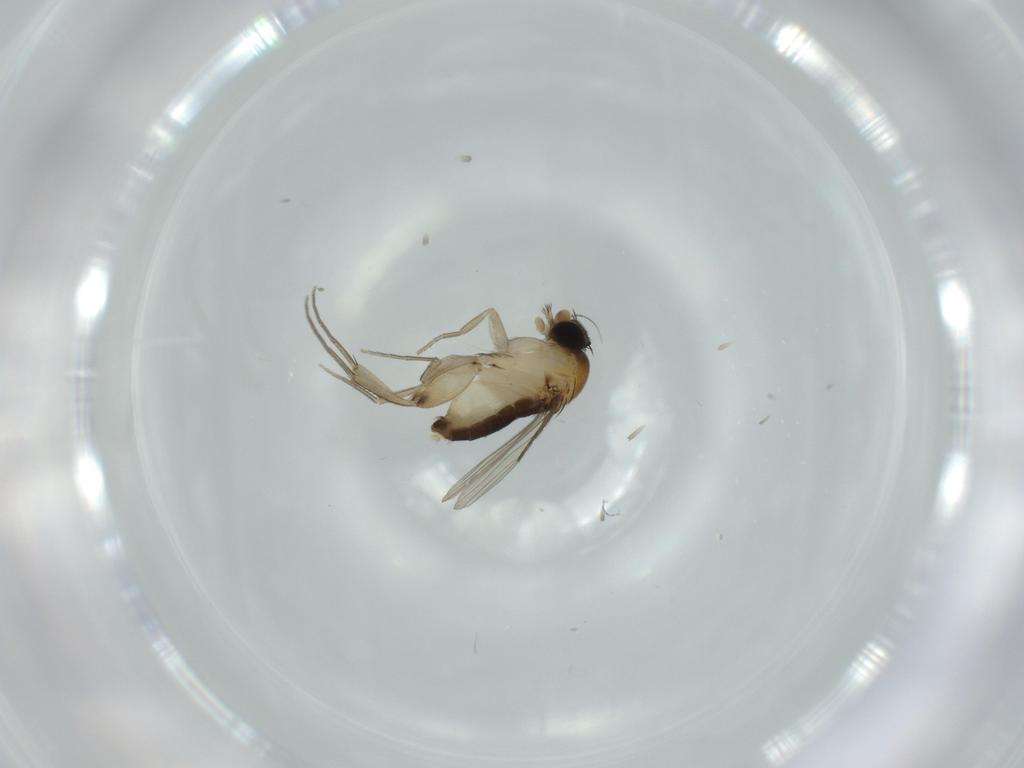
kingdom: Animalia
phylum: Arthropoda
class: Insecta
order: Diptera
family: Phoridae
